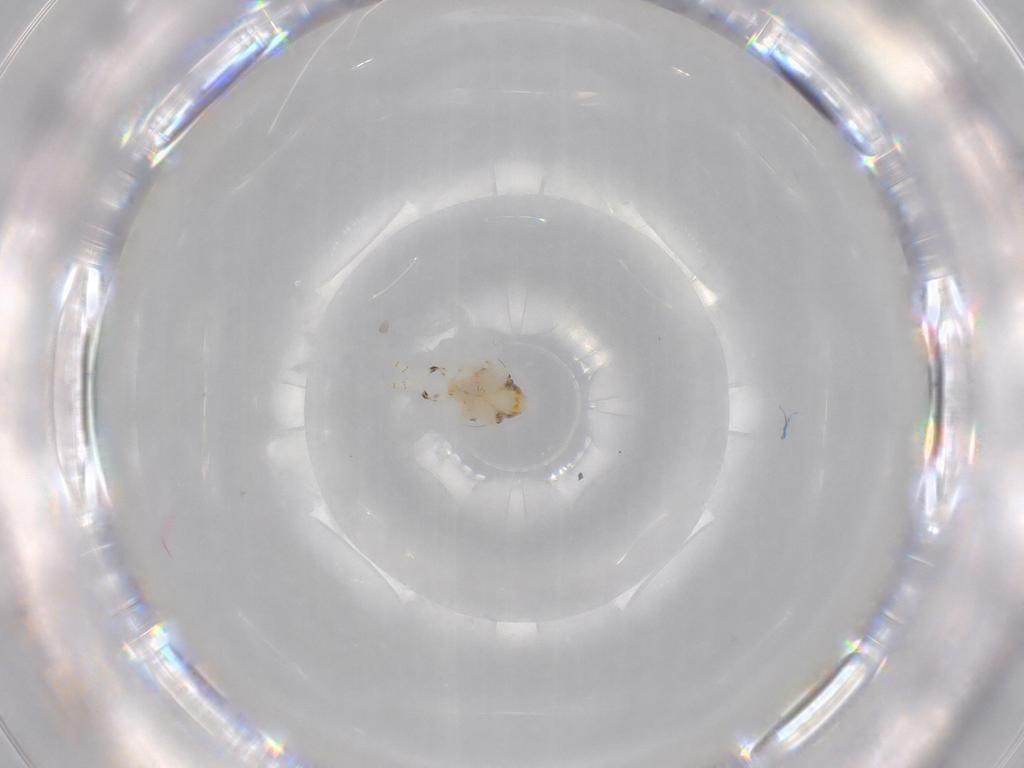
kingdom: Animalia
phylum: Arthropoda
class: Insecta
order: Hemiptera
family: Nogodinidae
